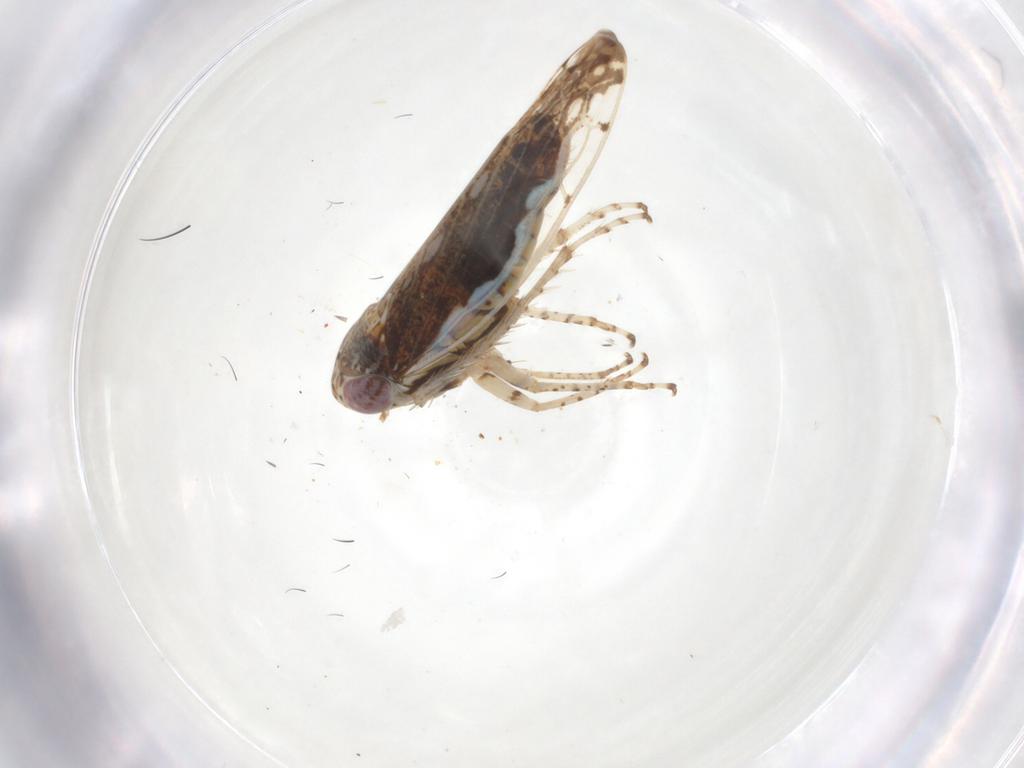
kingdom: Animalia
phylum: Arthropoda
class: Insecta
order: Hemiptera
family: Cicadellidae
